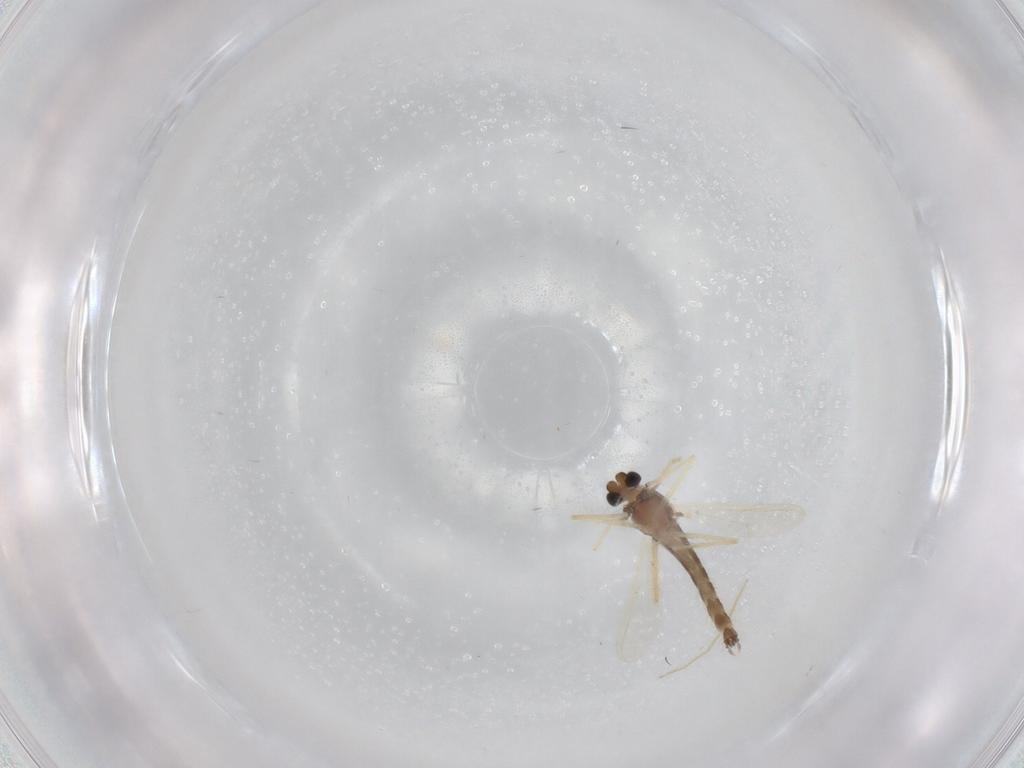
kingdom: Animalia
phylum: Arthropoda
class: Insecta
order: Diptera
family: Chironomidae
